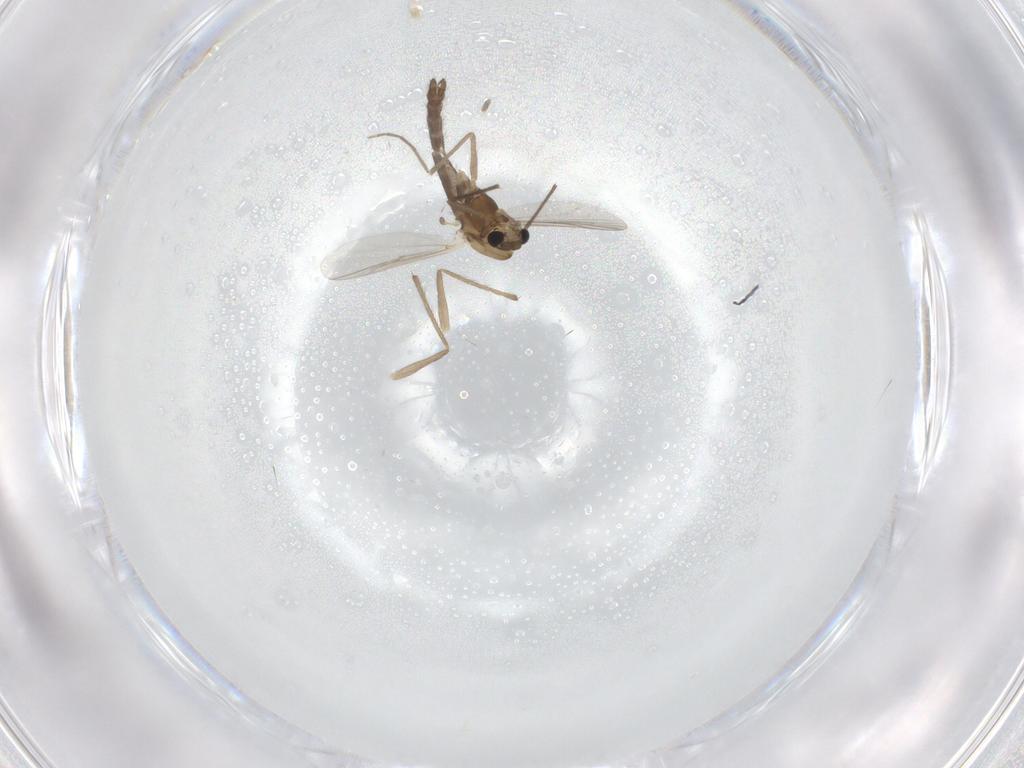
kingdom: Animalia
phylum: Arthropoda
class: Insecta
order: Diptera
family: Chironomidae
